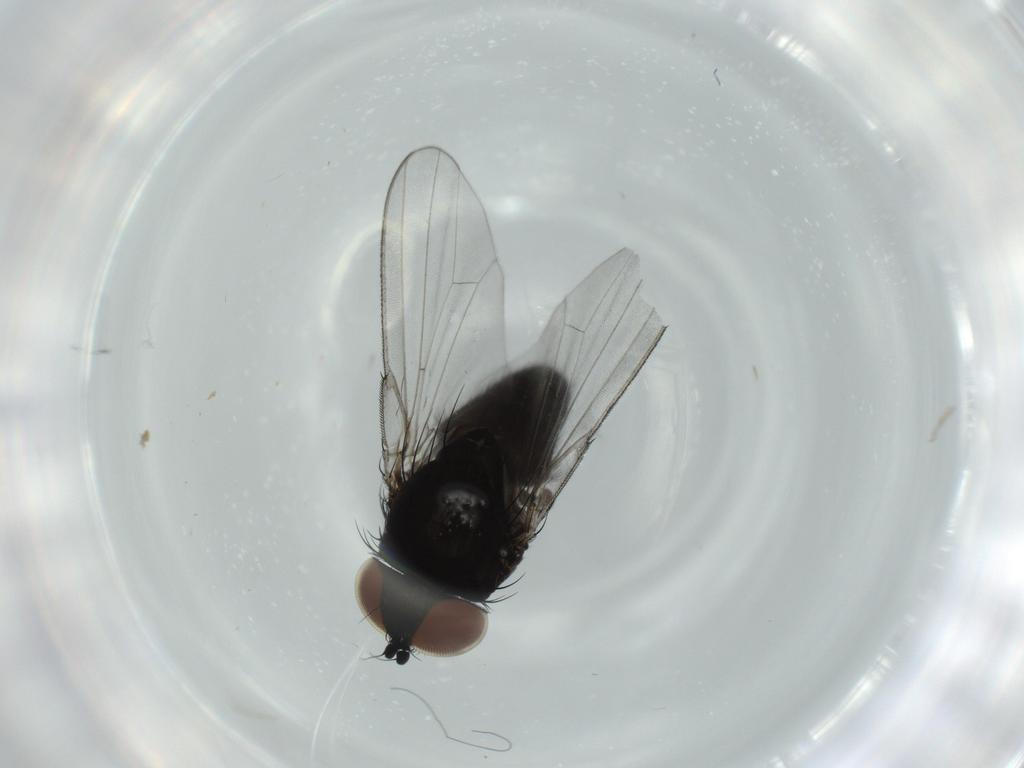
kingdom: Animalia
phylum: Arthropoda
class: Insecta
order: Diptera
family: Milichiidae
